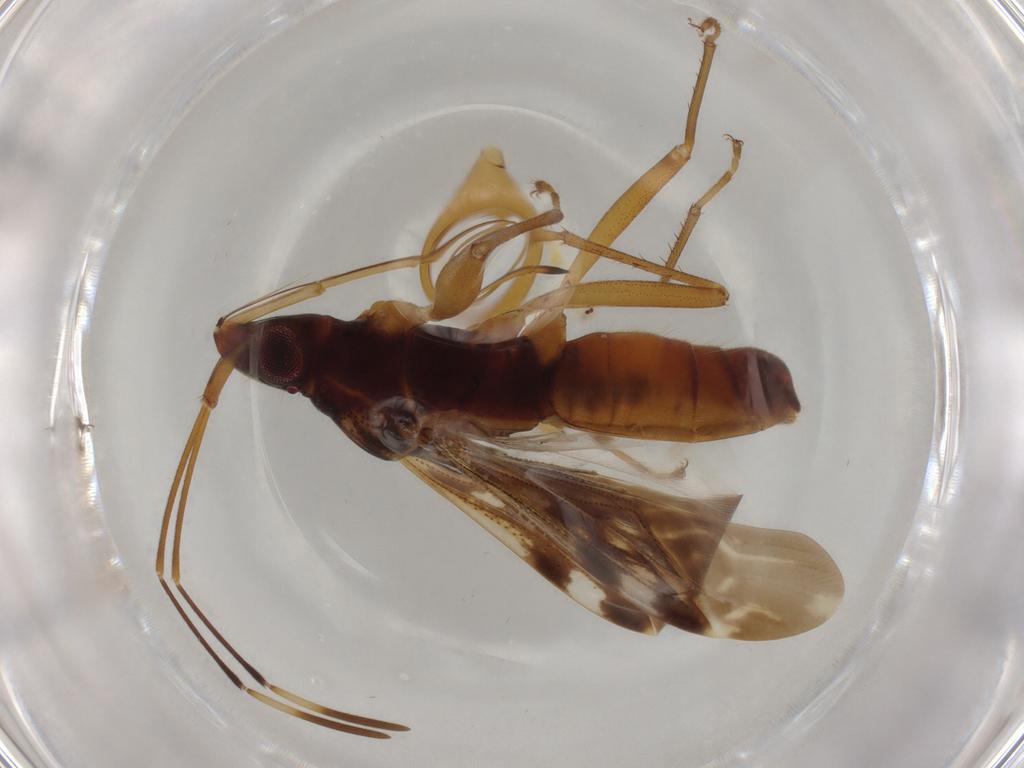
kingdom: Animalia
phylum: Arthropoda
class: Insecta
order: Hemiptera
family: Rhyparochromidae
